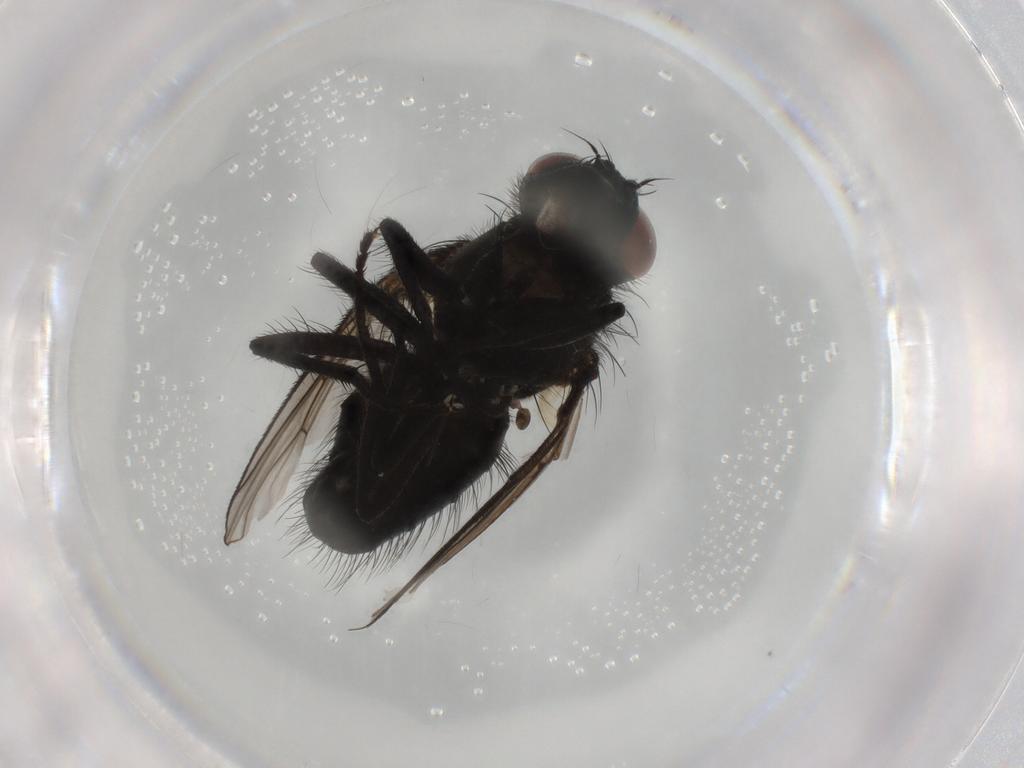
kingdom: Animalia
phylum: Arthropoda
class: Insecta
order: Diptera
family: Muscidae
